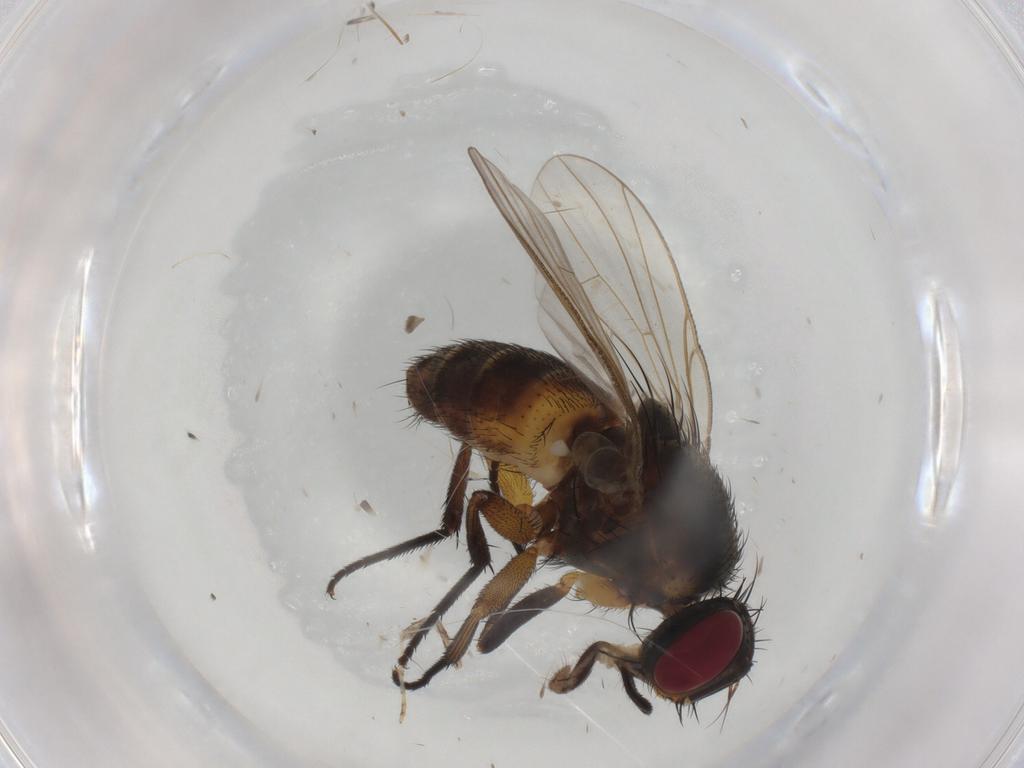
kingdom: Animalia
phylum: Arthropoda
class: Insecta
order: Diptera
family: Muscidae
